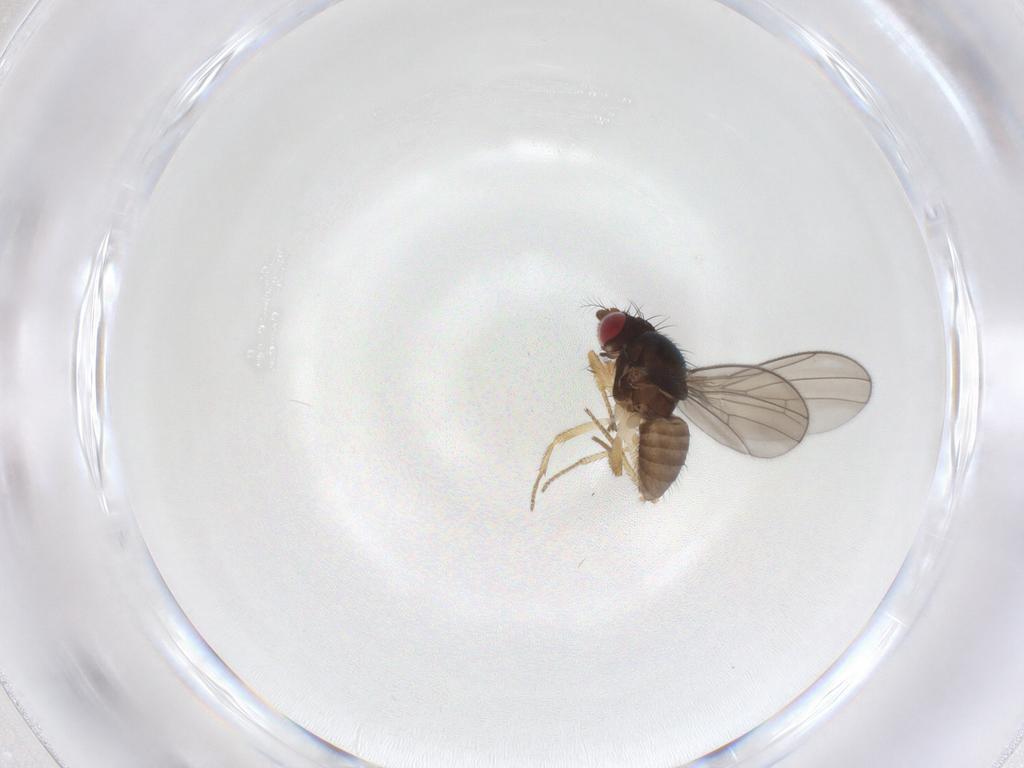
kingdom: Animalia
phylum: Arthropoda
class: Insecta
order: Diptera
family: Drosophilidae
